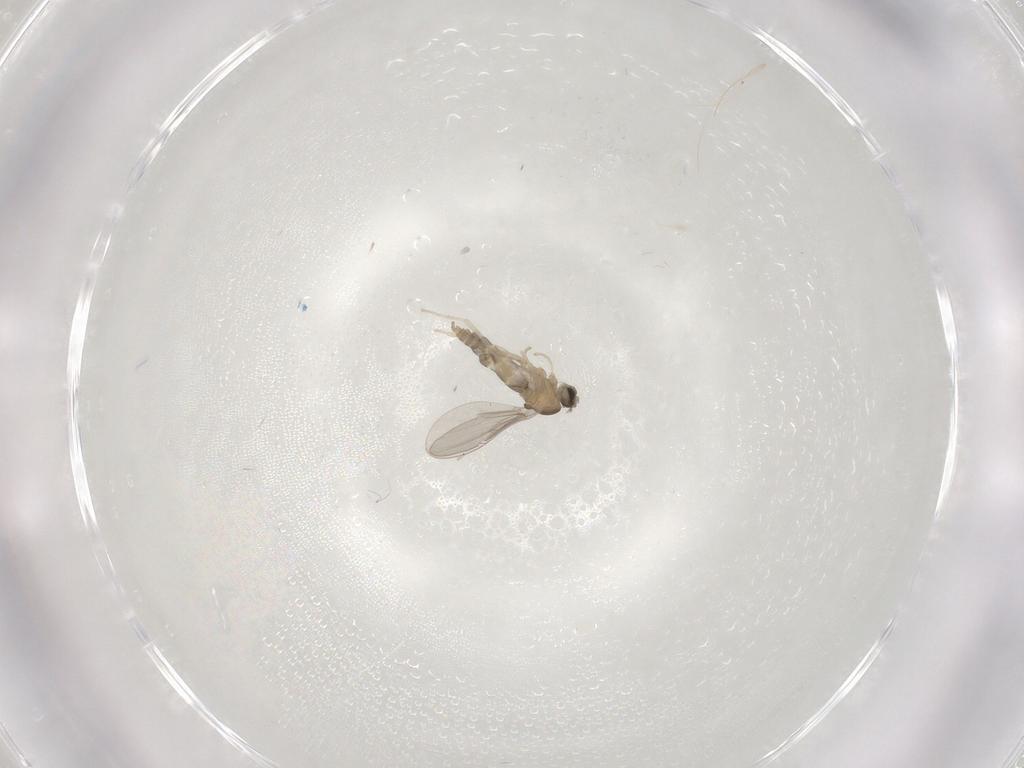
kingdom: Animalia
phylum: Arthropoda
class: Insecta
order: Diptera
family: Cecidomyiidae
